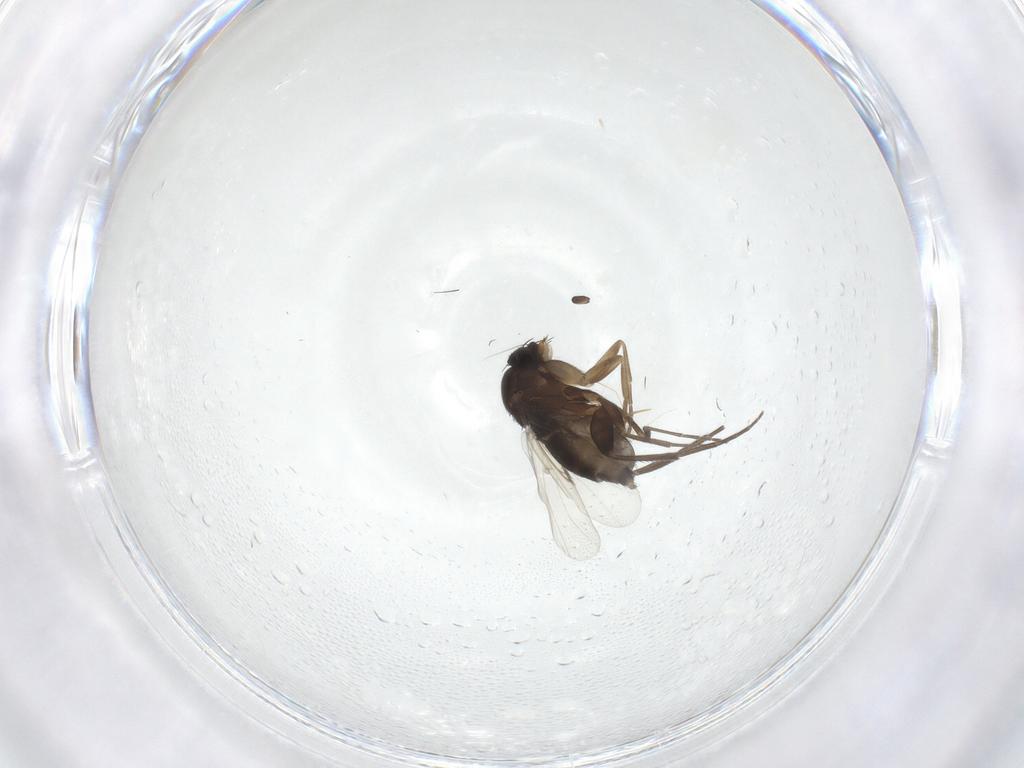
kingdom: Animalia
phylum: Arthropoda
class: Insecta
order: Diptera
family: Phoridae
